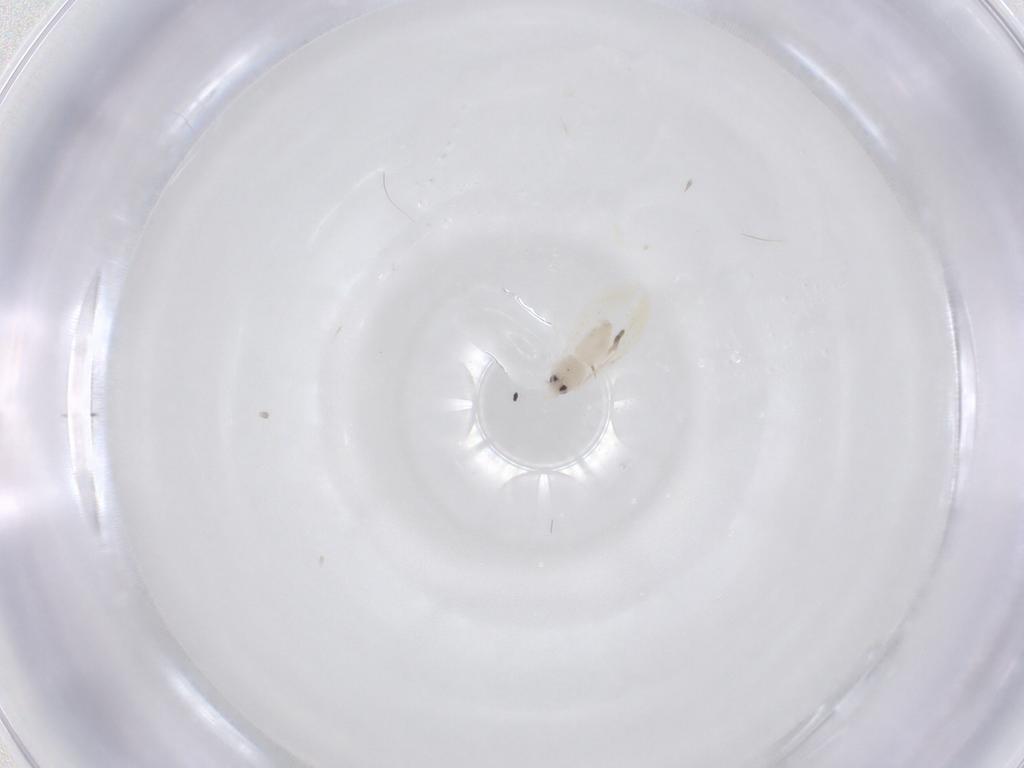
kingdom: Animalia
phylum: Arthropoda
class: Insecta
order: Hemiptera
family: Aleyrodidae
